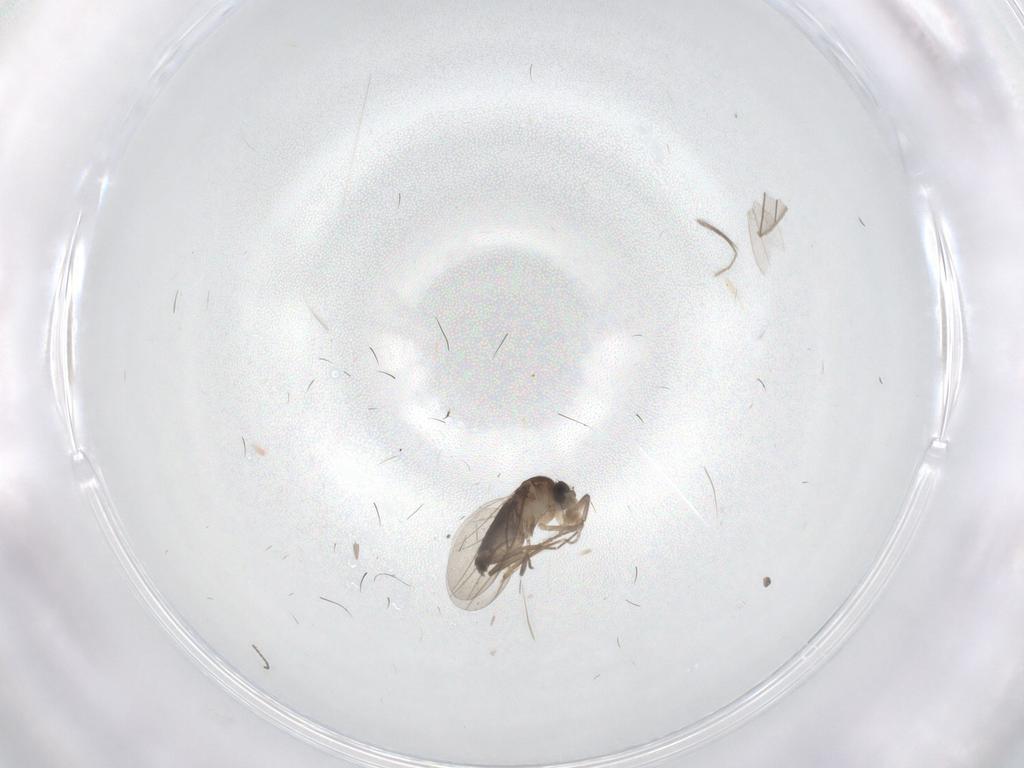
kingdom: Animalia
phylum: Arthropoda
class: Insecta
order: Diptera
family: Phoridae
